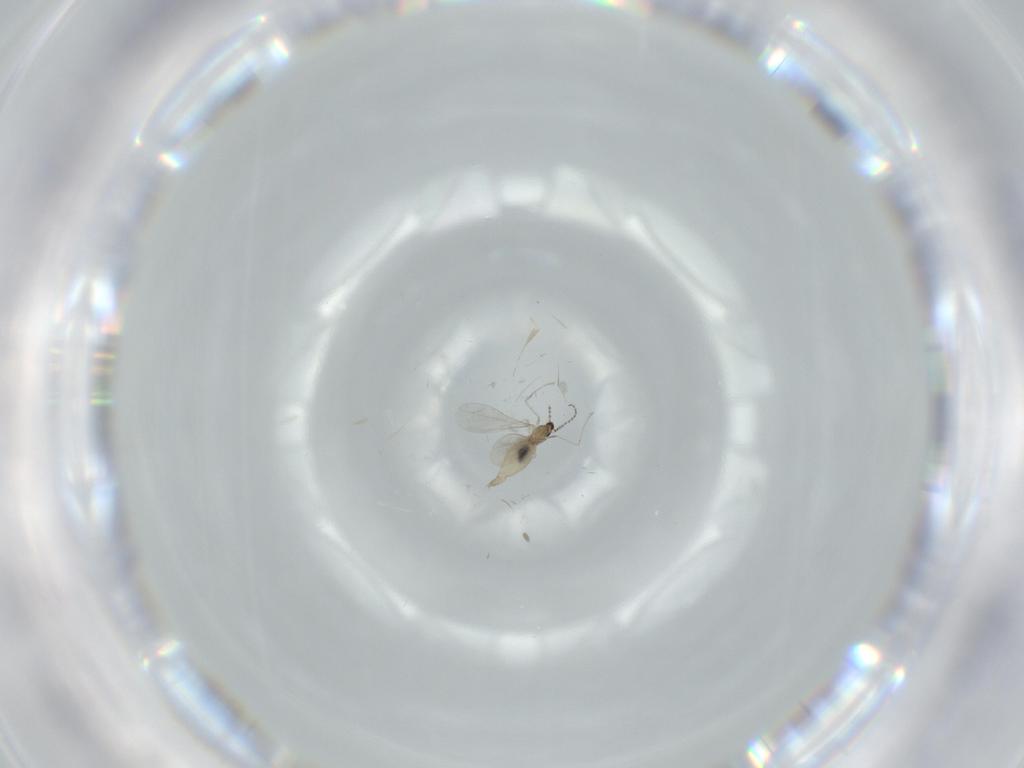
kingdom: Animalia
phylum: Arthropoda
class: Insecta
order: Diptera
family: Cecidomyiidae
